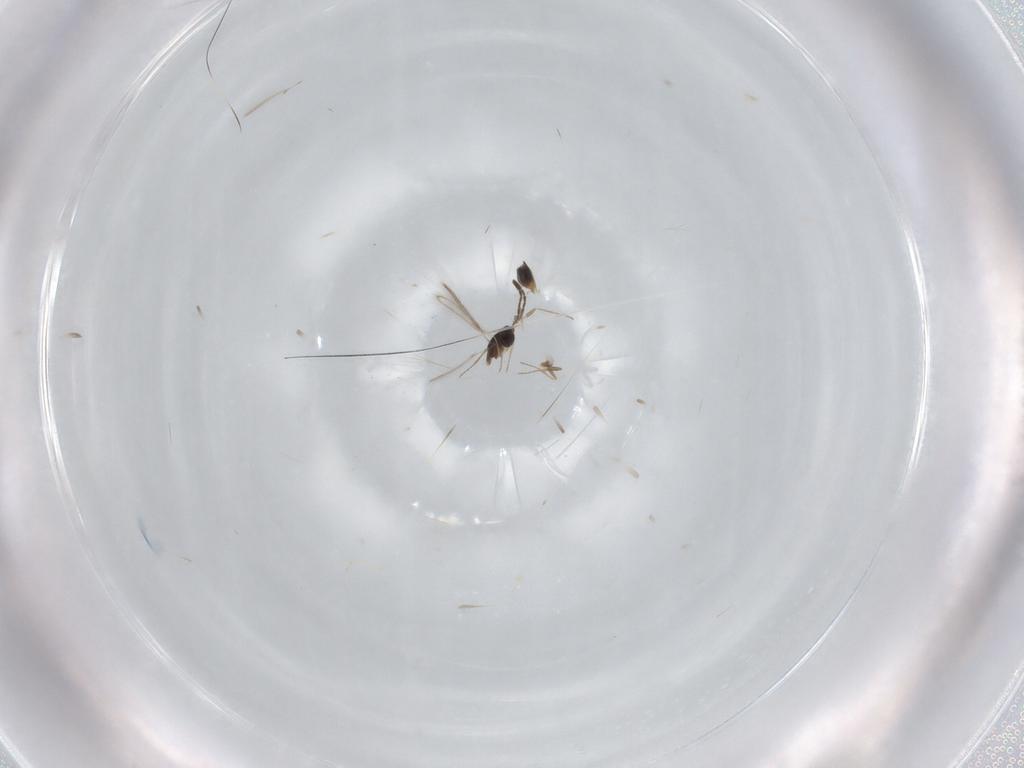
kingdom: Animalia
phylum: Arthropoda
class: Insecta
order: Hymenoptera
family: Mymaridae
